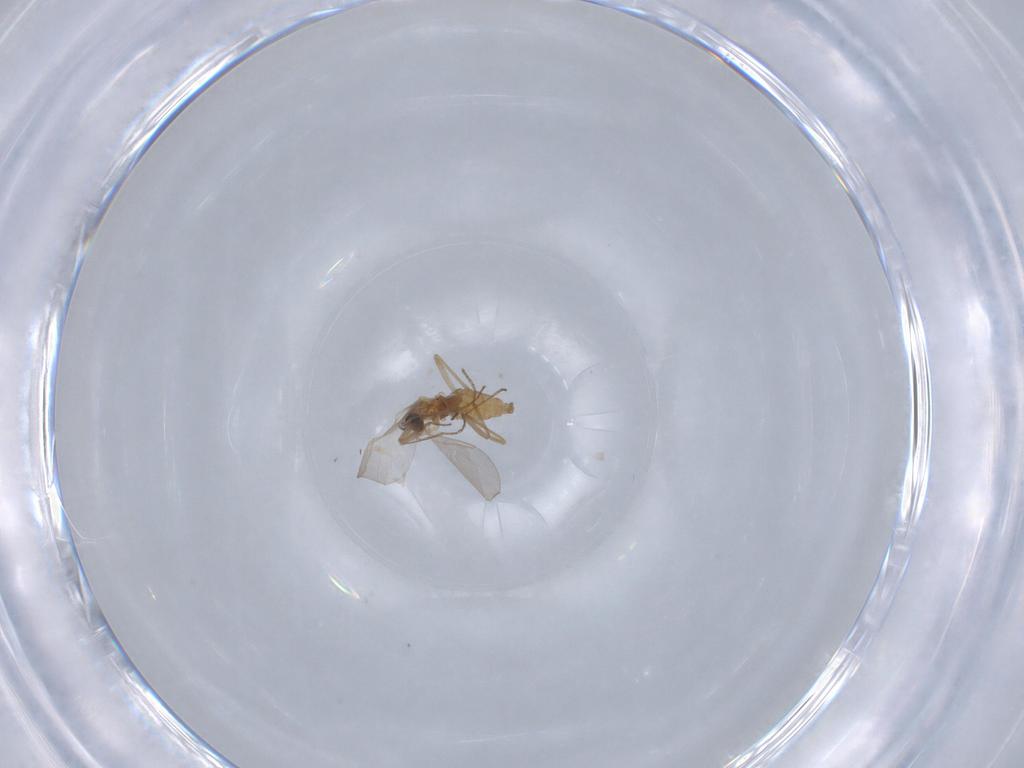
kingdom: Animalia
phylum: Arthropoda
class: Insecta
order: Diptera
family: Cecidomyiidae
